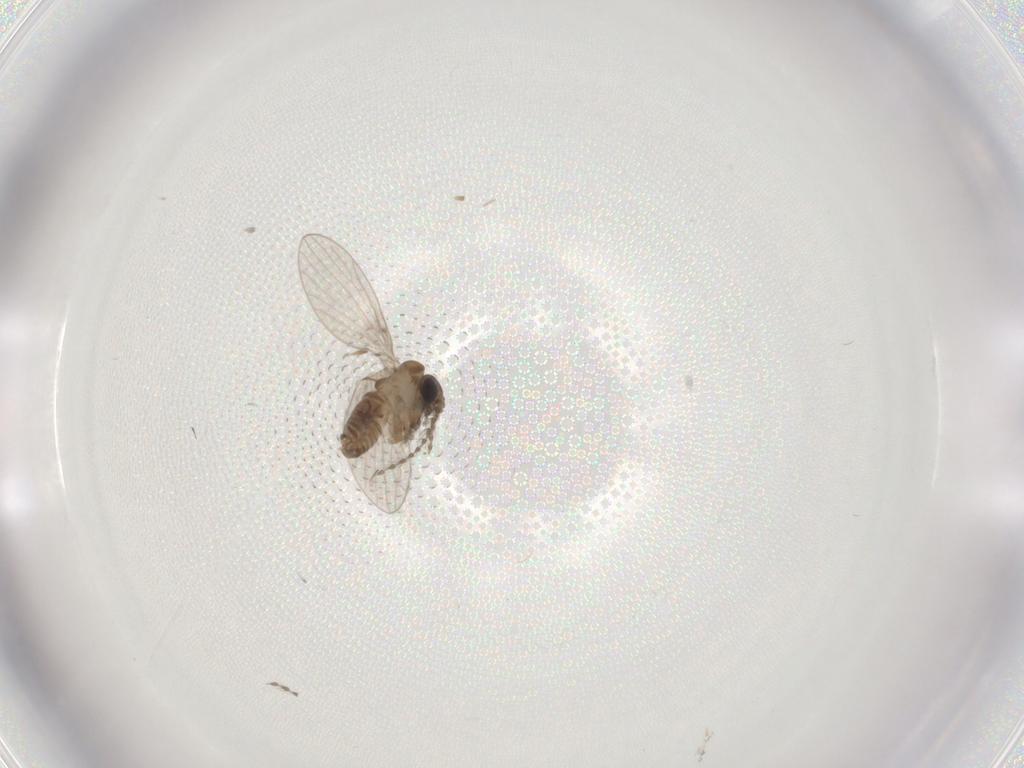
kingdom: Animalia
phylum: Arthropoda
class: Insecta
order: Diptera
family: Psychodidae
